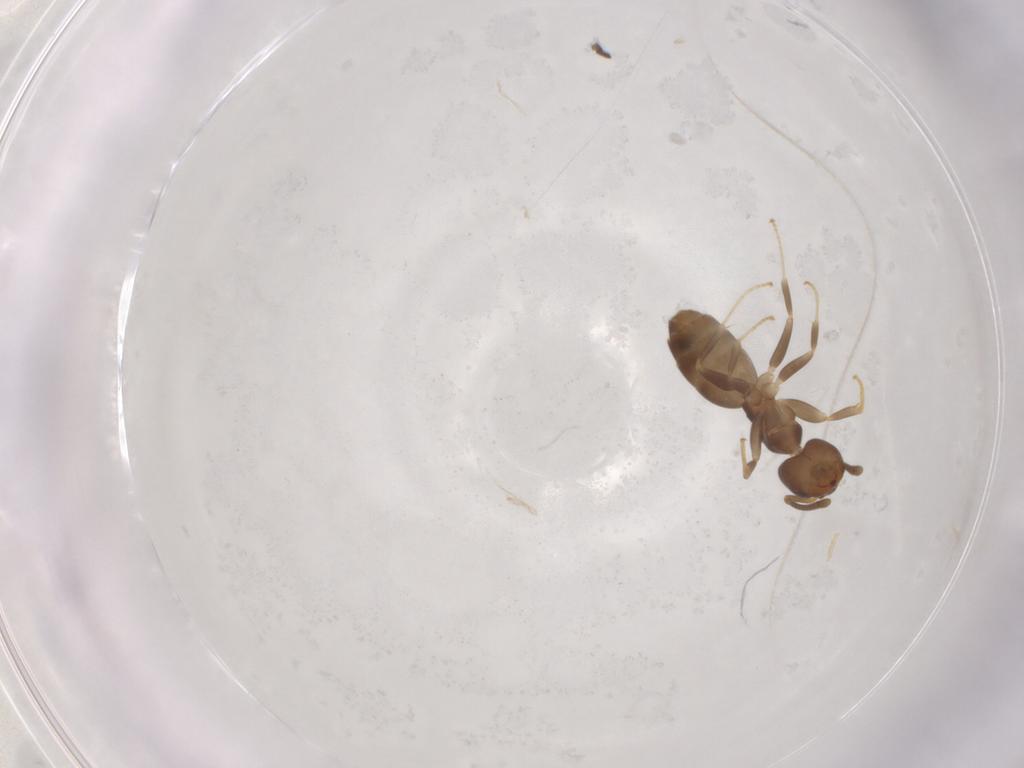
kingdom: Animalia
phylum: Arthropoda
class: Insecta
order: Hymenoptera
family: Formicidae
